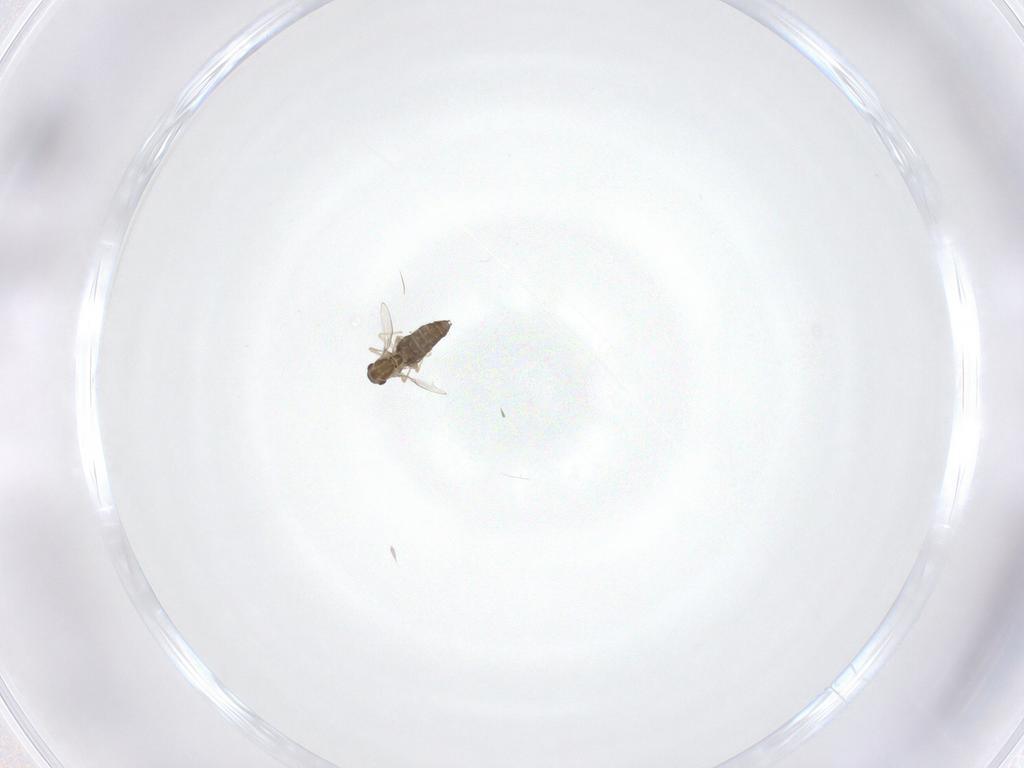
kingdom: Animalia
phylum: Arthropoda
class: Insecta
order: Diptera
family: Chironomidae
